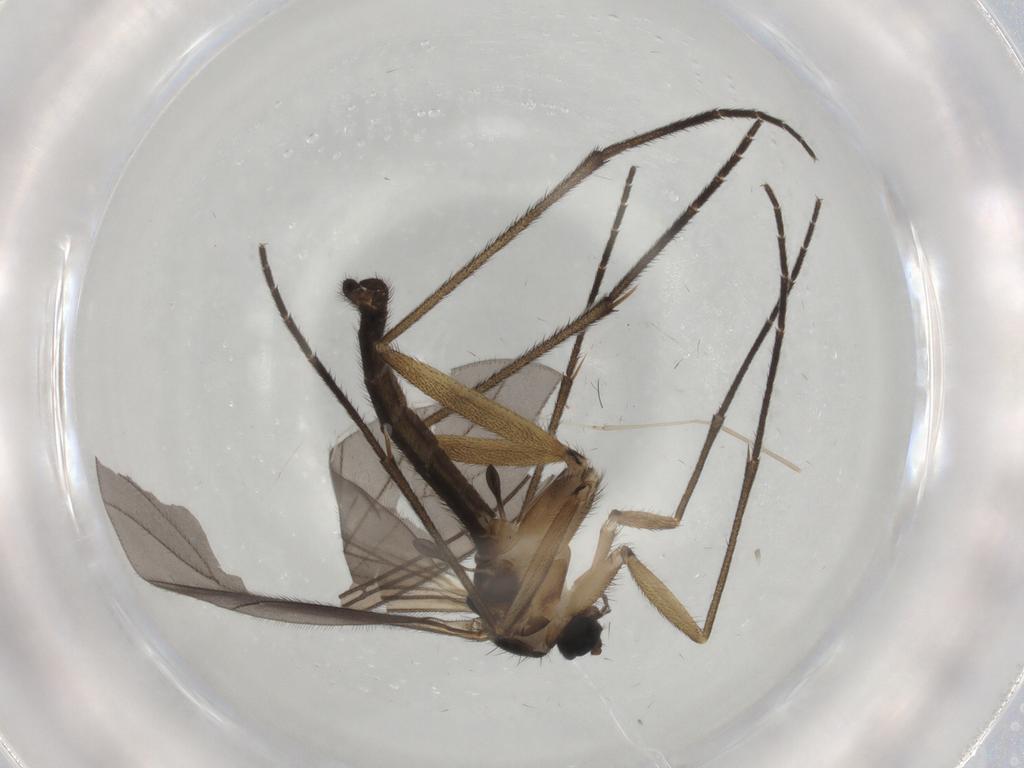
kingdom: Animalia
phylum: Arthropoda
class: Insecta
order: Diptera
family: Sciaridae
